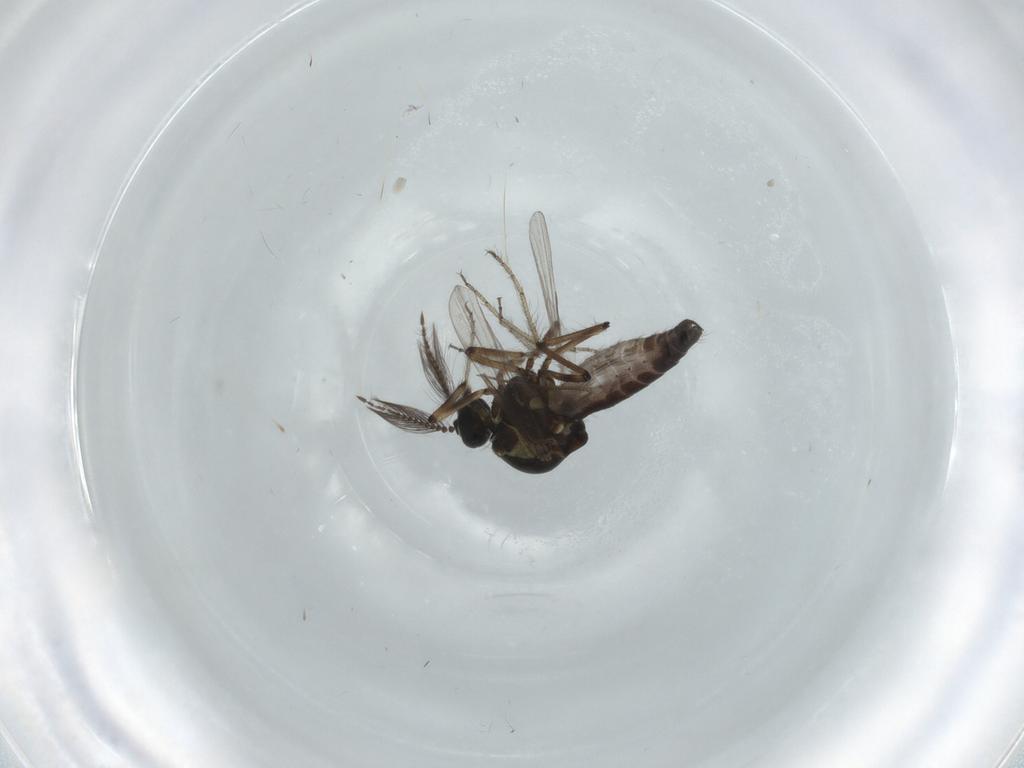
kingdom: Animalia
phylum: Arthropoda
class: Insecta
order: Diptera
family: Ceratopogonidae
